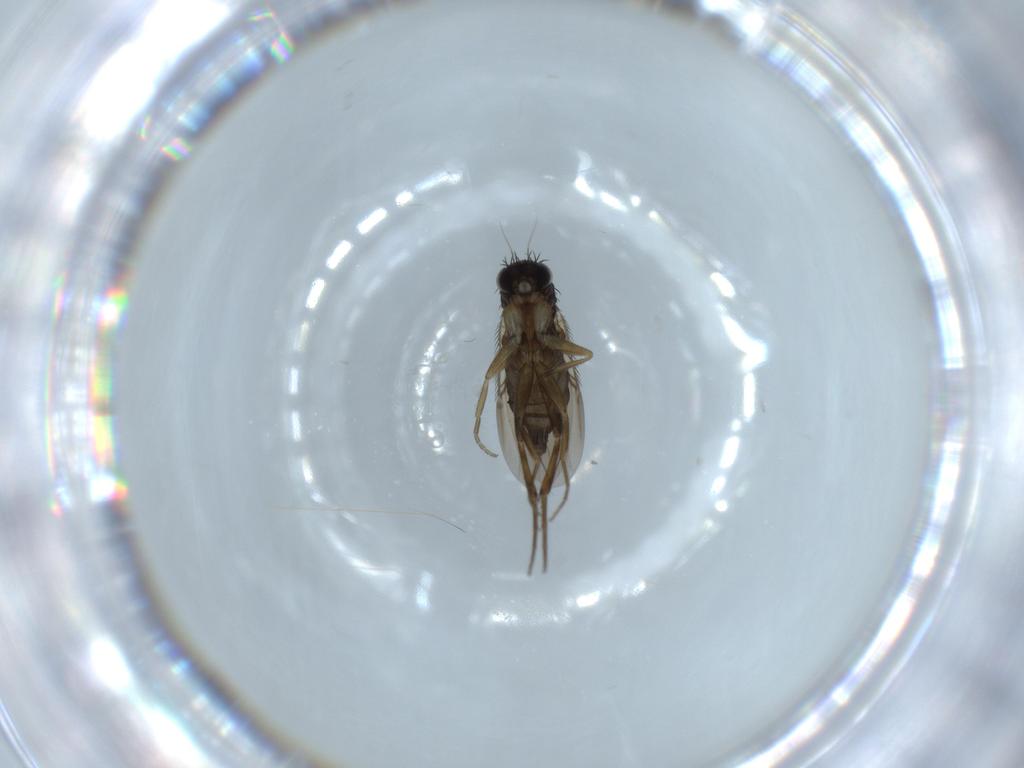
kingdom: Animalia
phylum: Arthropoda
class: Insecta
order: Diptera
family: Phoridae
